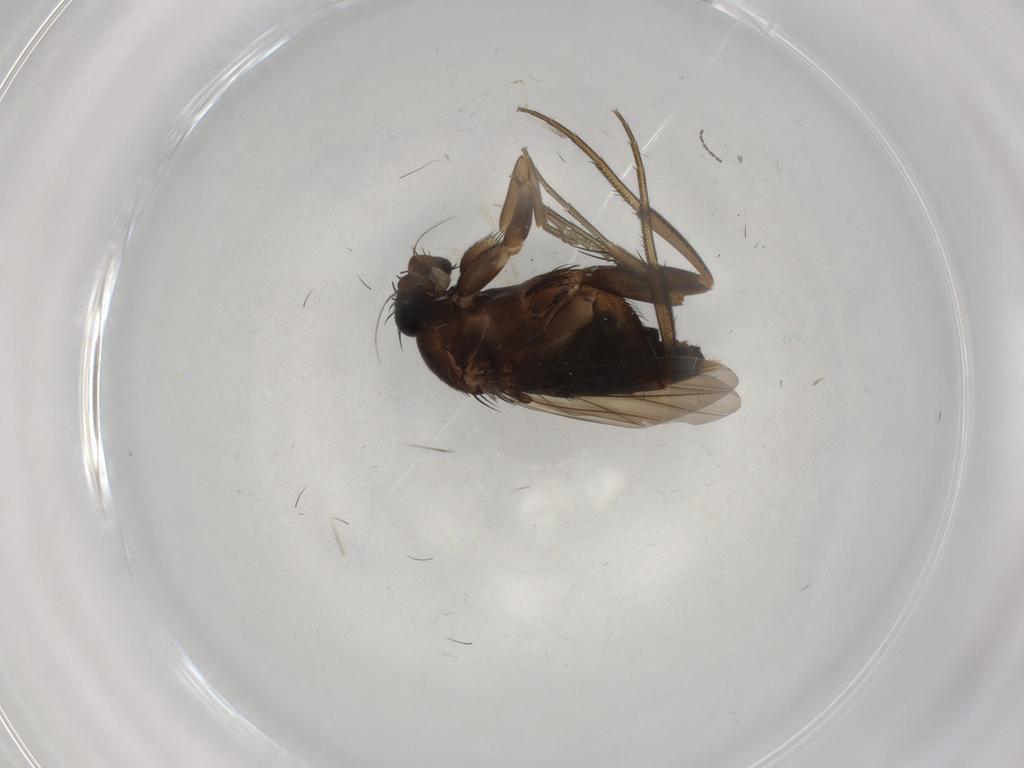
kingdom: Animalia
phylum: Arthropoda
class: Insecta
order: Diptera
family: Phoridae
